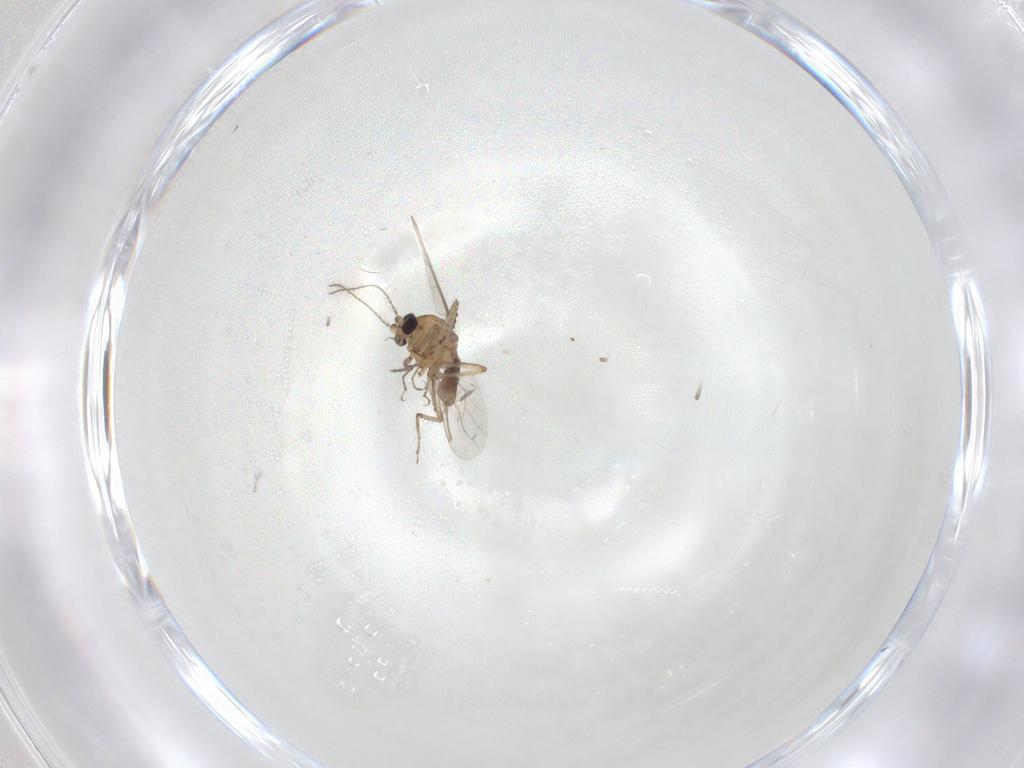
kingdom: Animalia
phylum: Arthropoda
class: Insecta
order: Diptera
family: Ceratopogonidae
